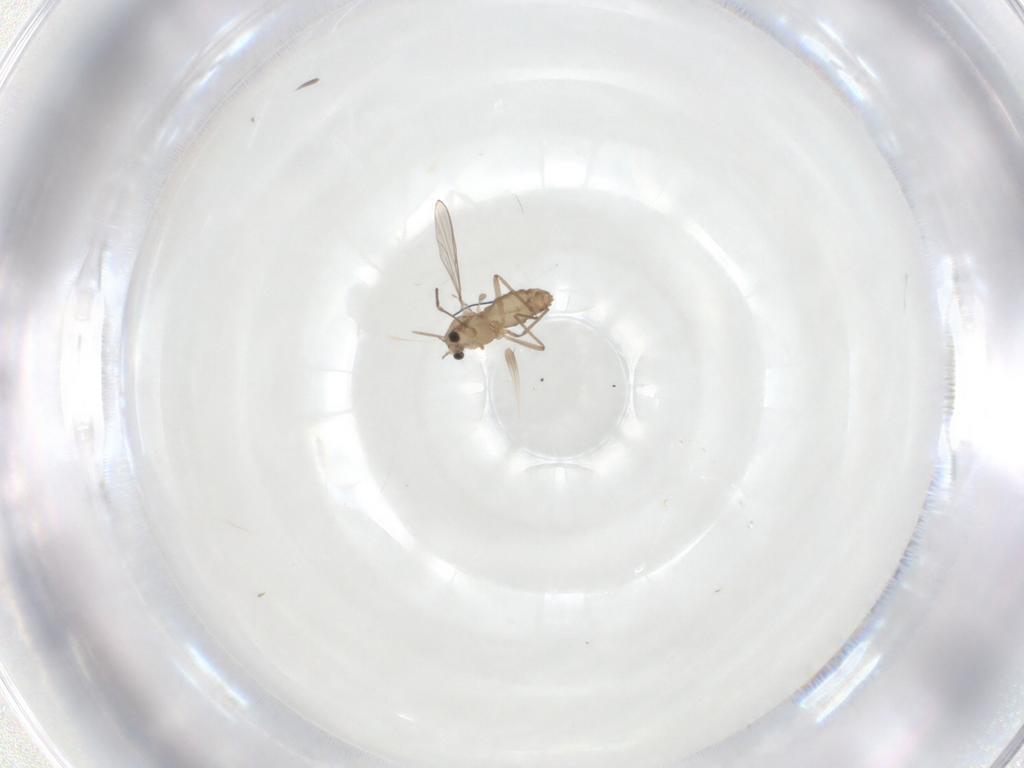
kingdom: Animalia
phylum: Arthropoda
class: Insecta
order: Diptera
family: Chironomidae
